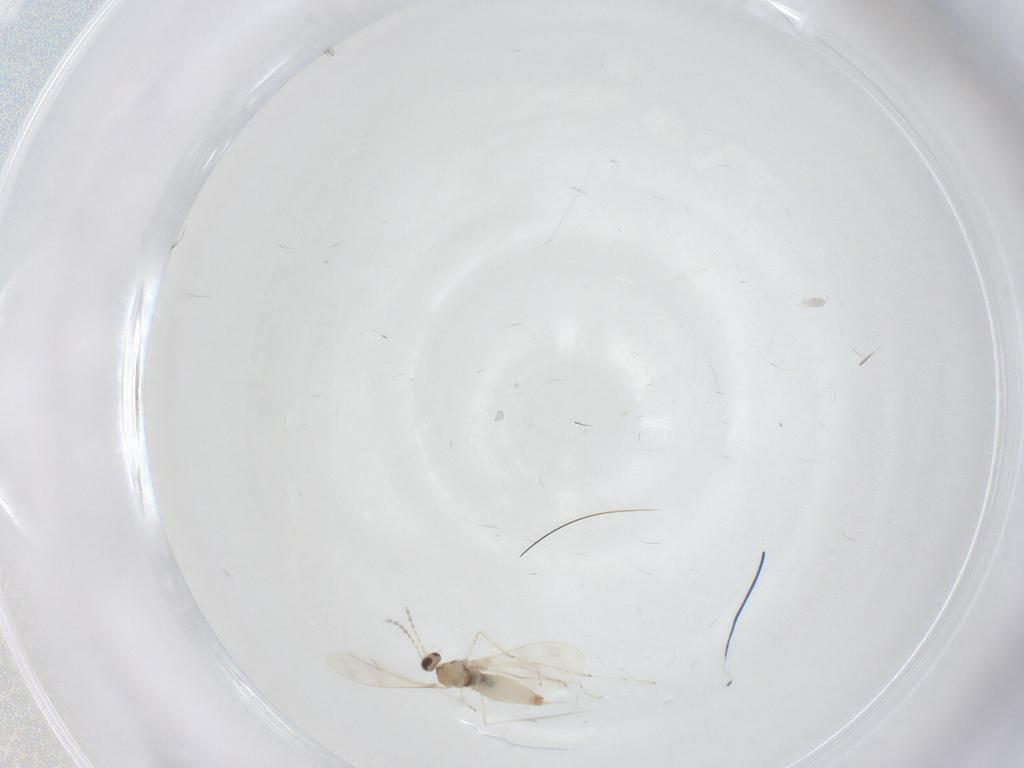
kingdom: Animalia
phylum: Arthropoda
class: Insecta
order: Diptera
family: Cecidomyiidae
